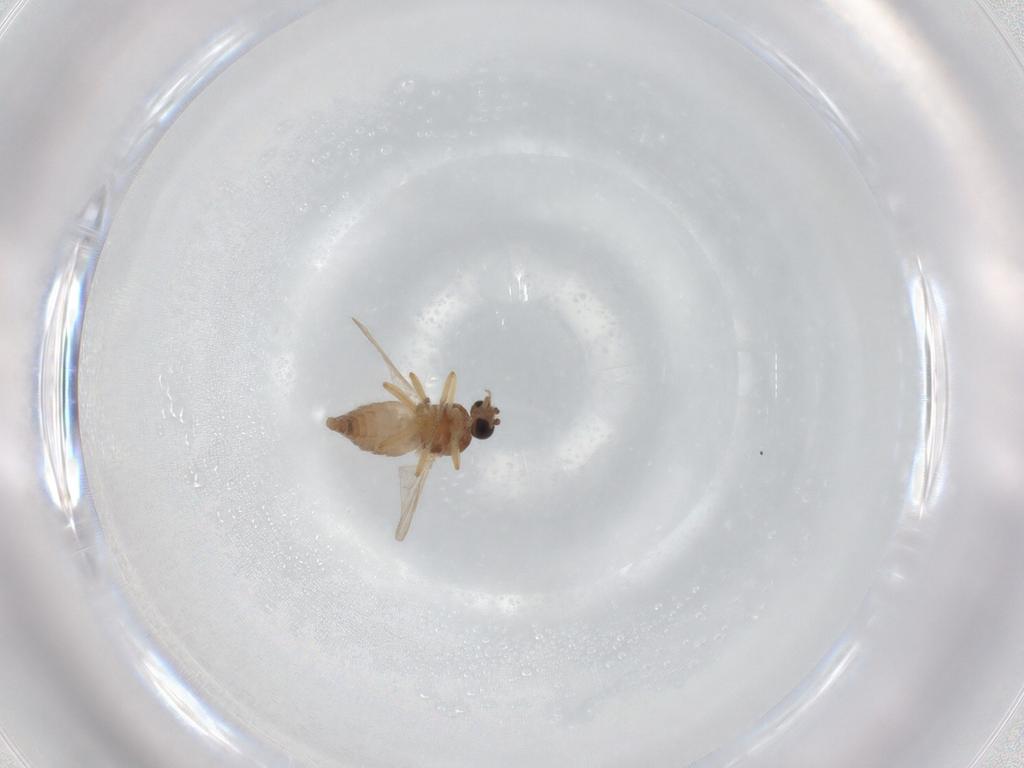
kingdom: Animalia
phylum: Arthropoda
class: Insecta
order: Diptera
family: Ceratopogonidae
